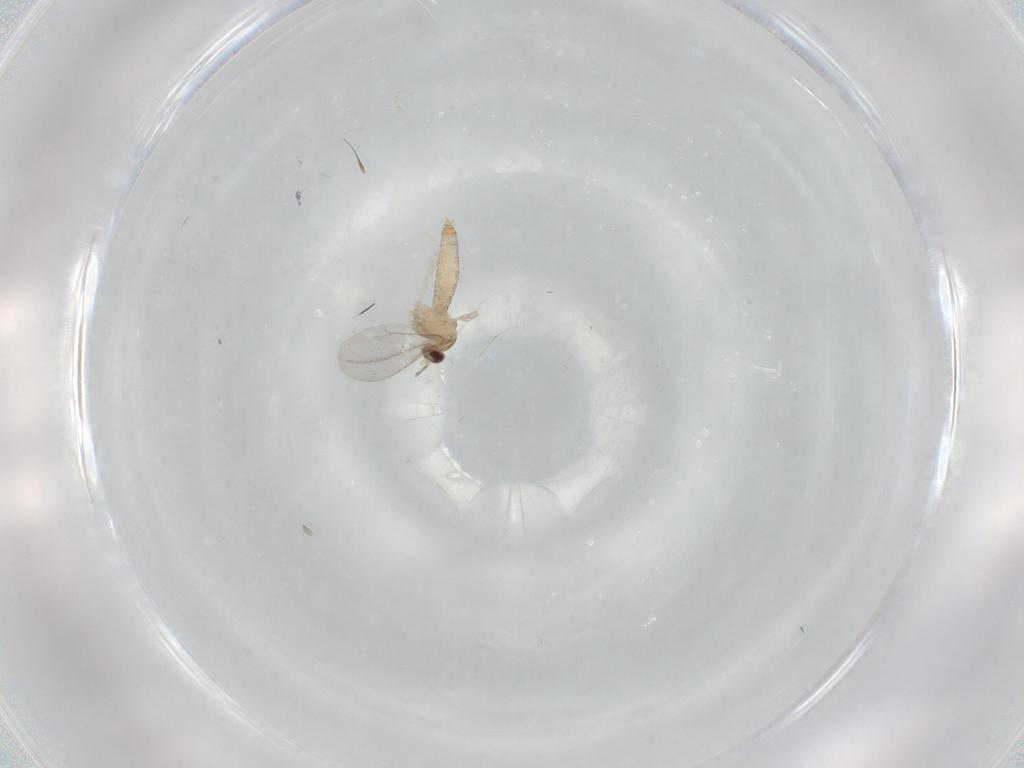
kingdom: Animalia
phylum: Arthropoda
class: Insecta
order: Diptera
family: Cecidomyiidae
